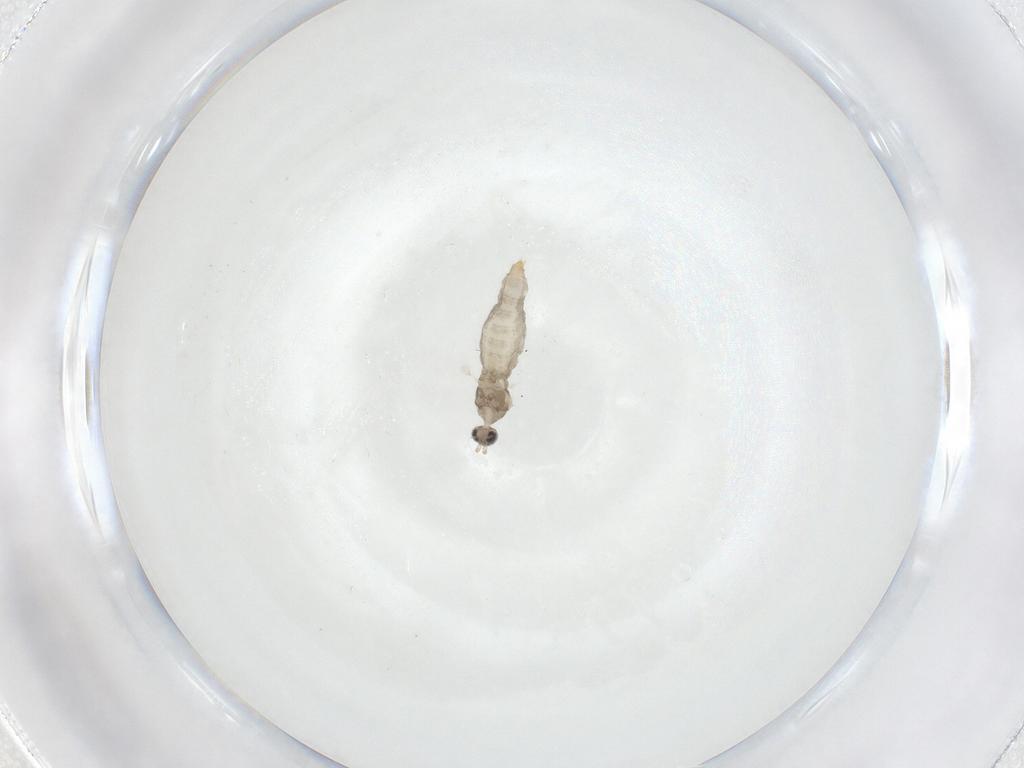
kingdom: Animalia
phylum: Arthropoda
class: Insecta
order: Diptera
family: Cecidomyiidae
